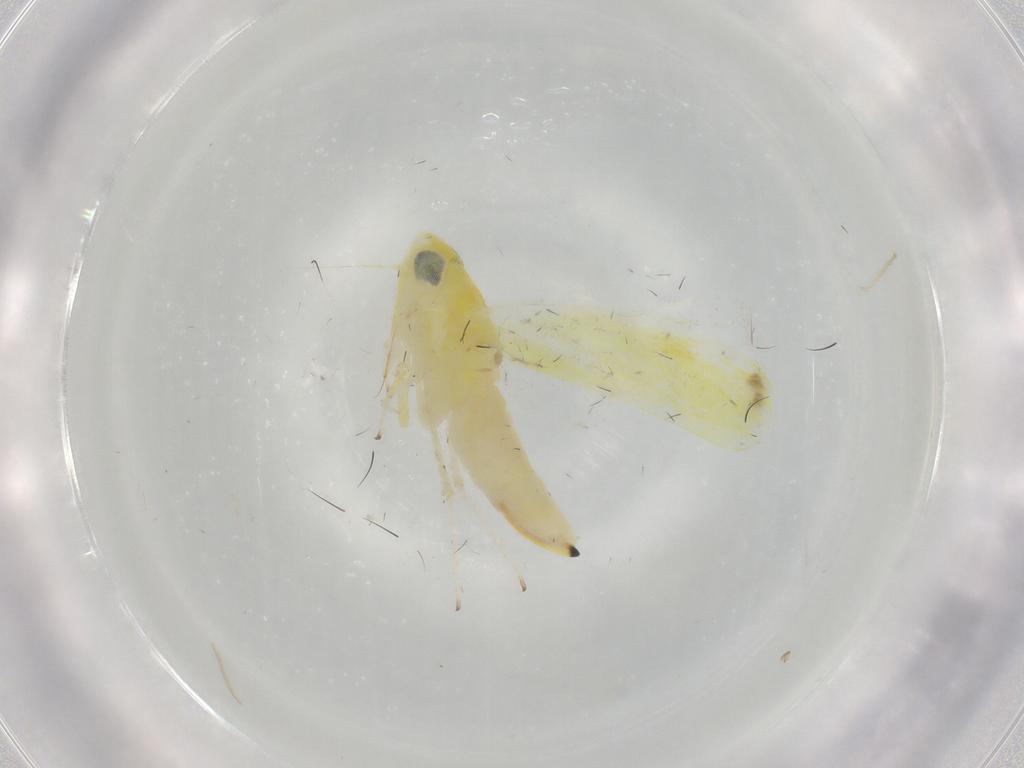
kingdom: Animalia
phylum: Arthropoda
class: Insecta
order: Hemiptera
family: Cicadellidae
